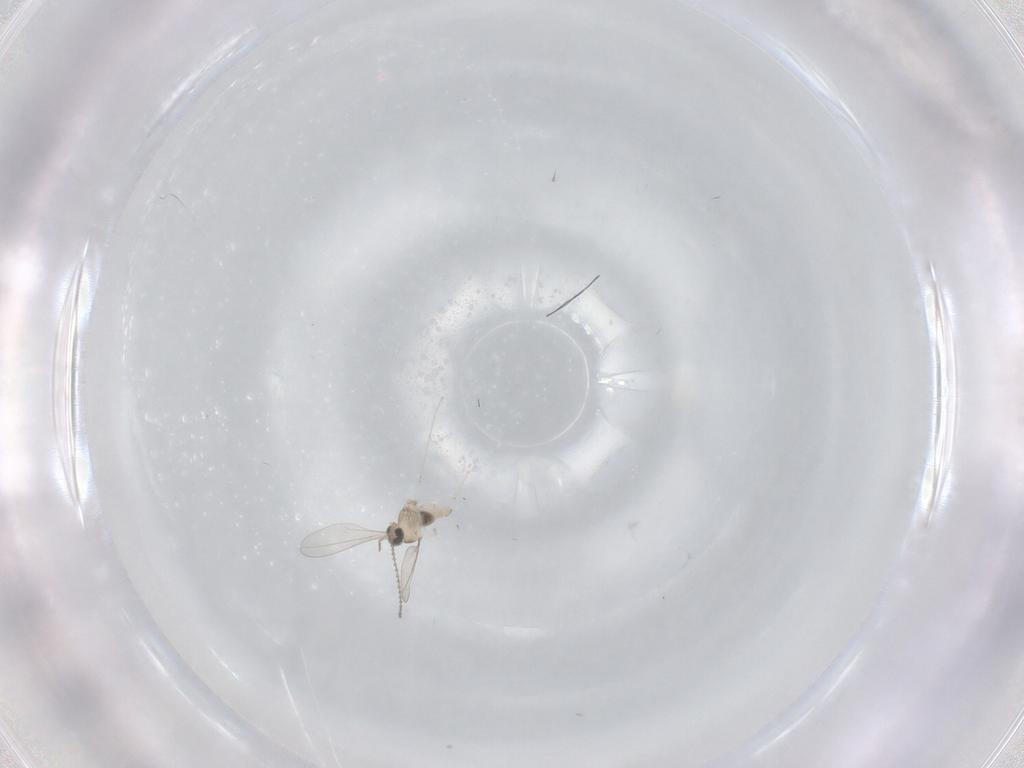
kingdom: Animalia
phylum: Arthropoda
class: Insecta
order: Diptera
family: Cecidomyiidae
